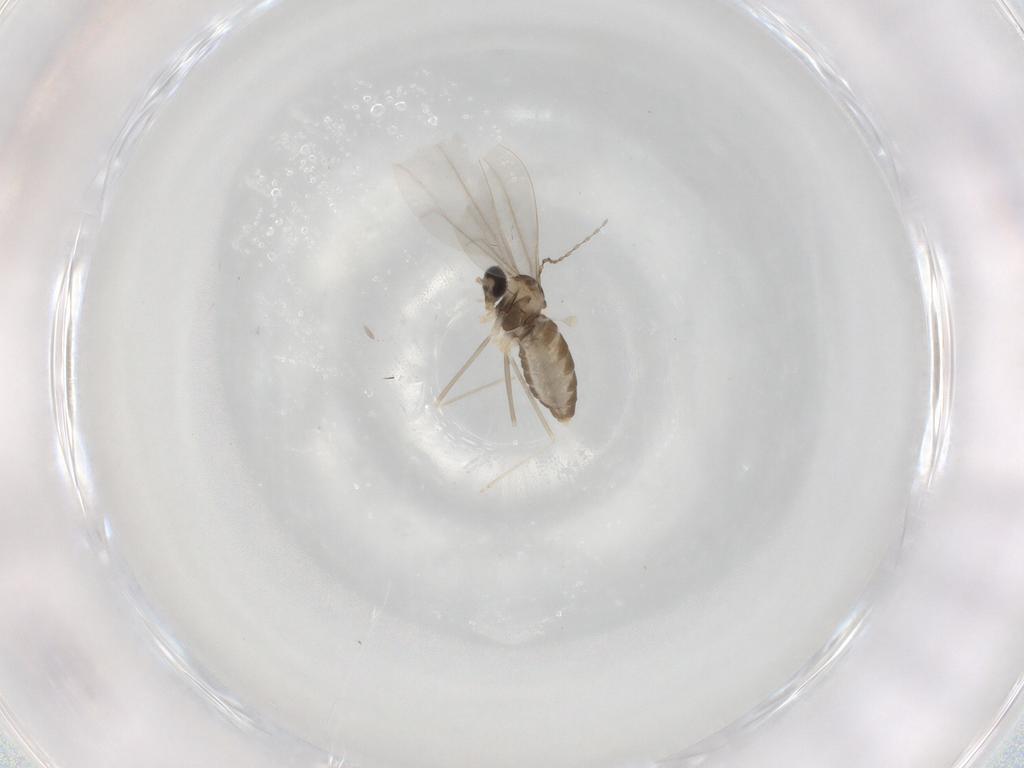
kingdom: Animalia
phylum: Arthropoda
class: Insecta
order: Diptera
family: Cecidomyiidae
